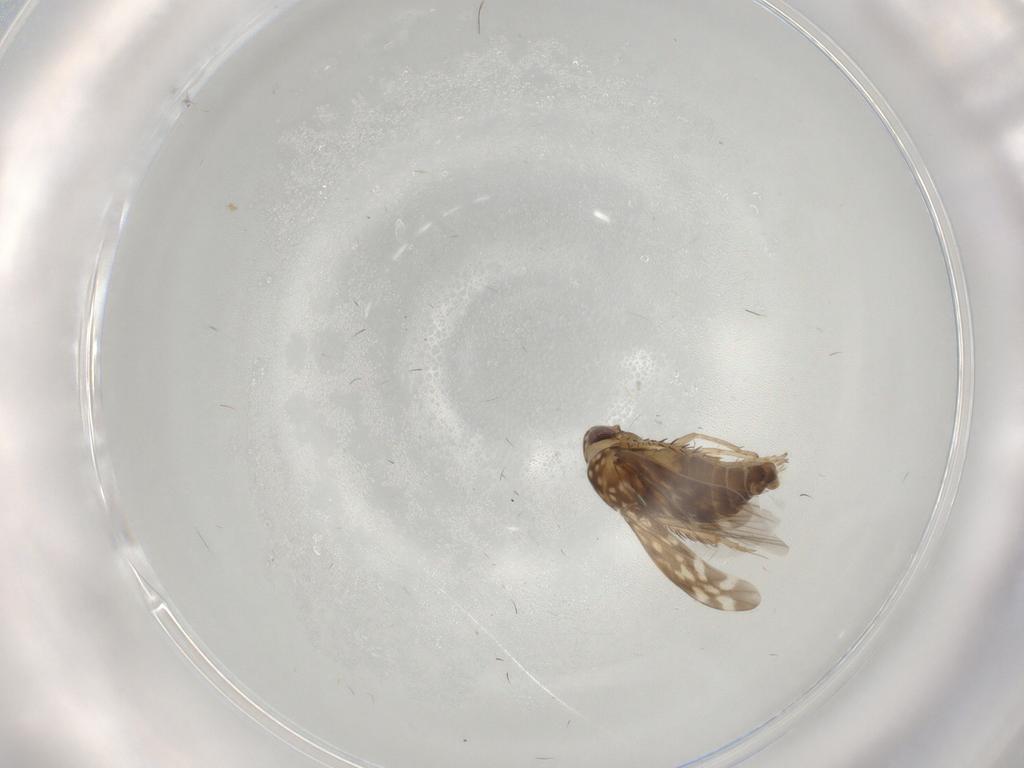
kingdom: Animalia
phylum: Arthropoda
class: Insecta
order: Hemiptera
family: Cicadellidae
